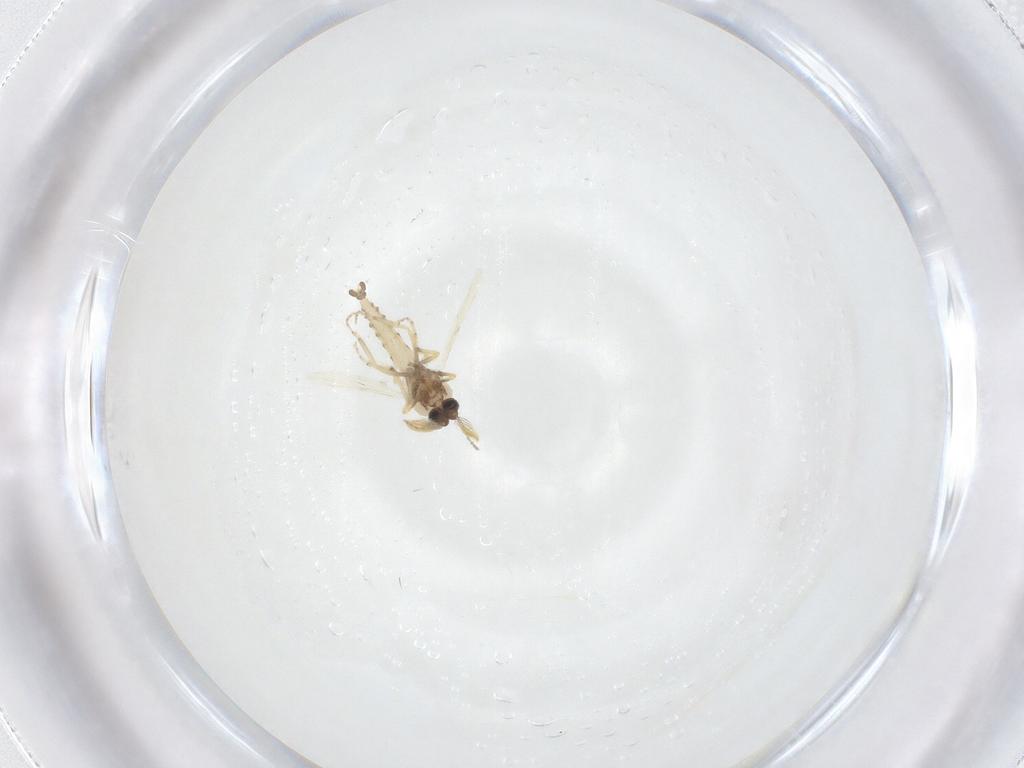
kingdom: Animalia
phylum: Arthropoda
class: Insecta
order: Diptera
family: Ceratopogonidae
